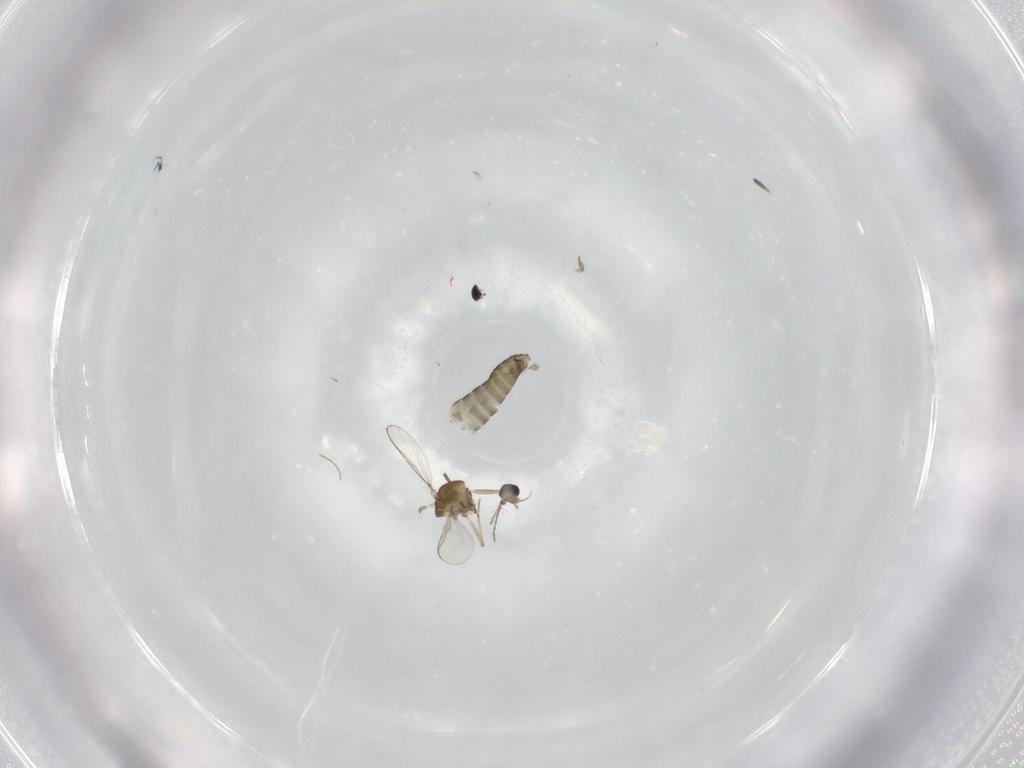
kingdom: Animalia
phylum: Arthropoda
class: Insecta
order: Diptera
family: Chironomidae
